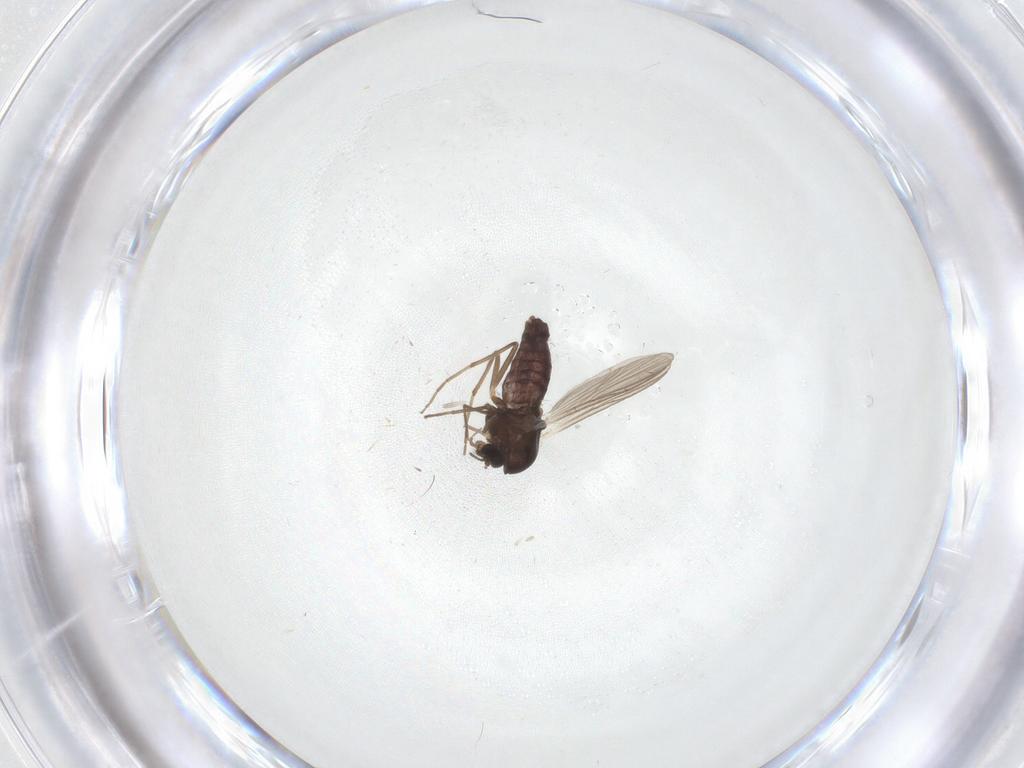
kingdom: Animalia
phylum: Arthropoda
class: Insecta
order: Diptera
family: Chironomidae
